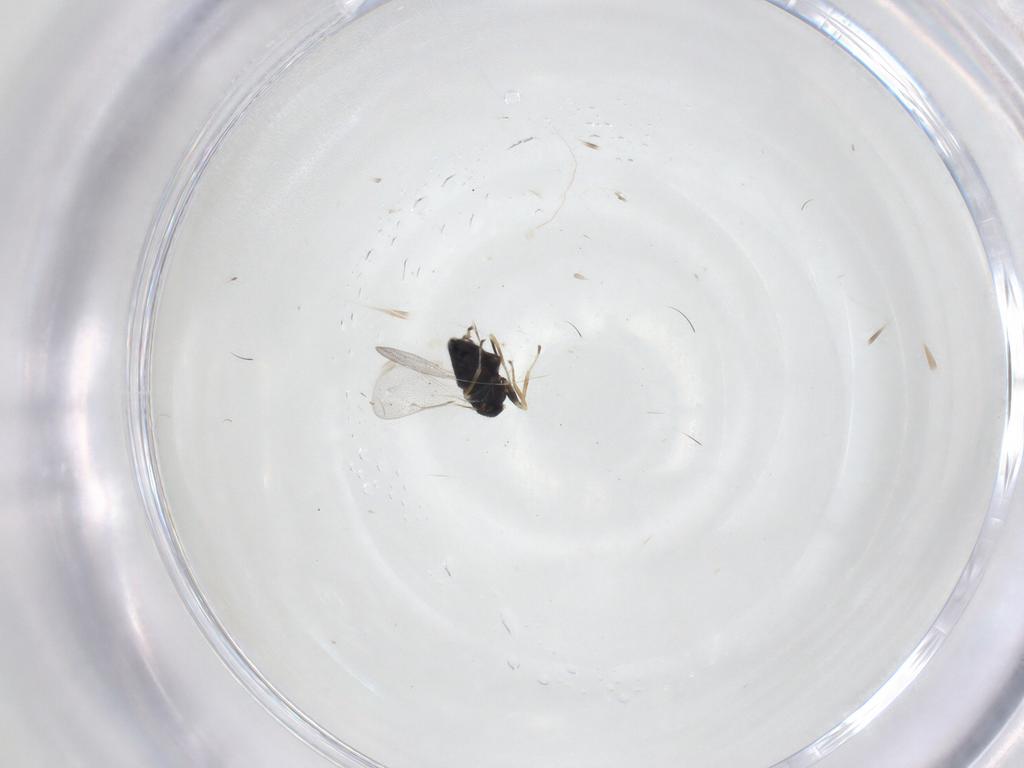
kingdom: Animalia
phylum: Arthropoda
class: Insecta
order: Hymenoptera
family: Eulophidae
